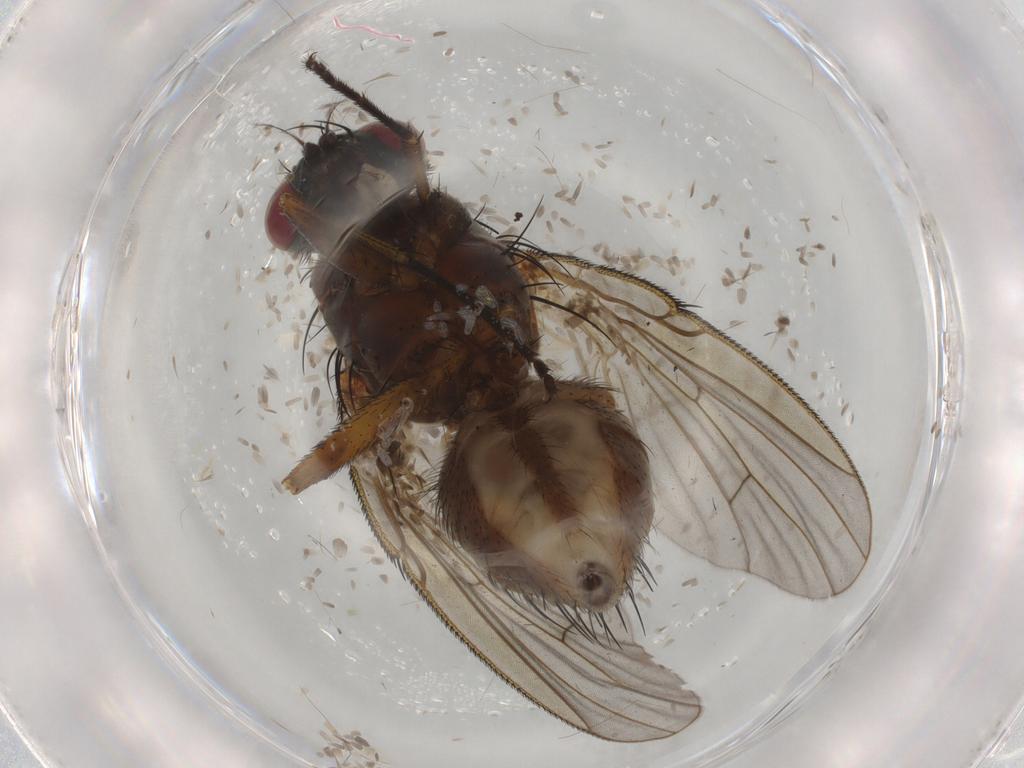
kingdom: Animalia
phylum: Arthropoda
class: Insecta
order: Diptera
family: Muscidae
